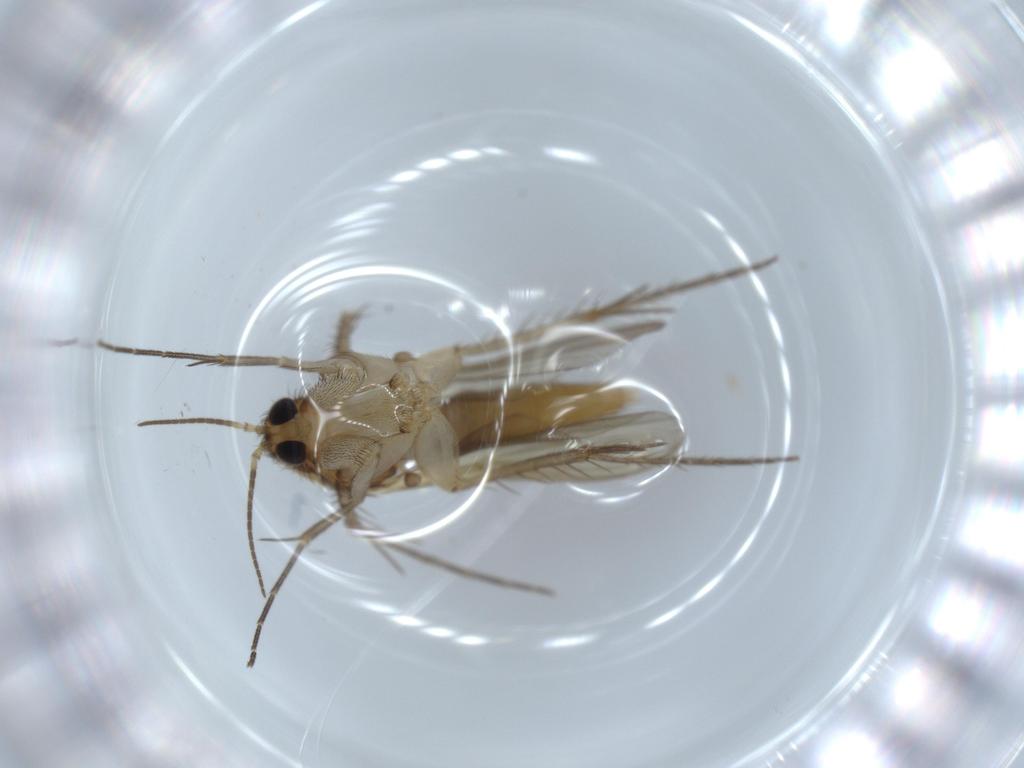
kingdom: Animalia
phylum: Arthropoda
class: Insecta
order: Diptera
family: Mycetophilidae
